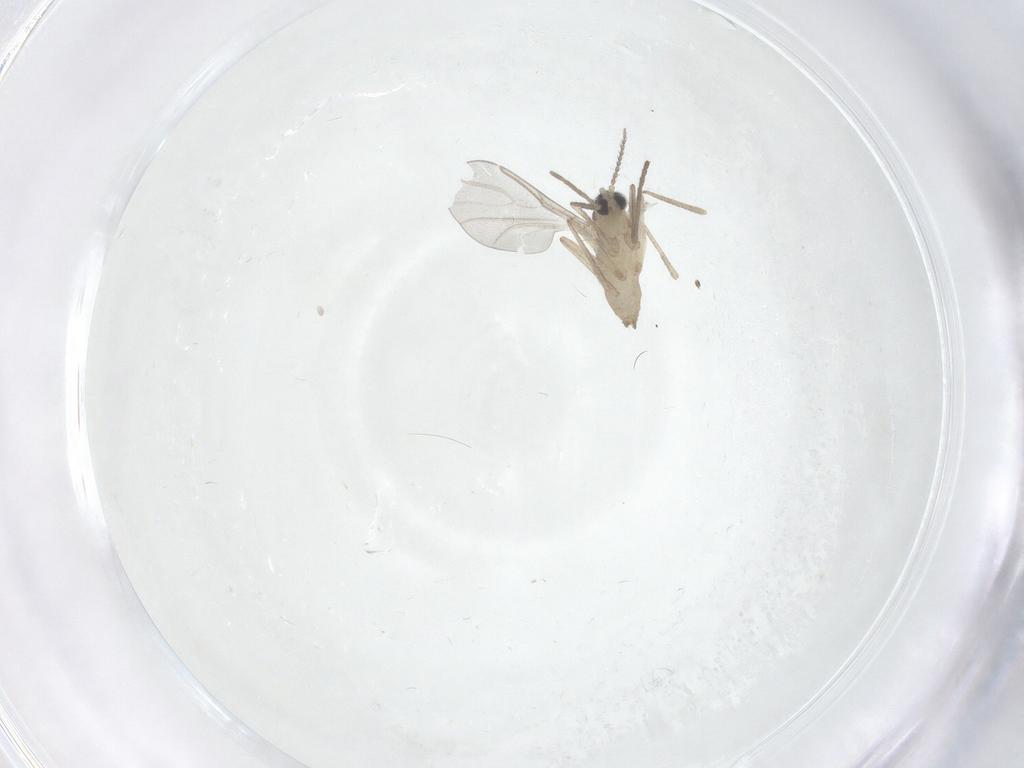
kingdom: Animalia
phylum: Arthropoda
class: Insecta
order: Diptera
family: Cecidomyiidae
